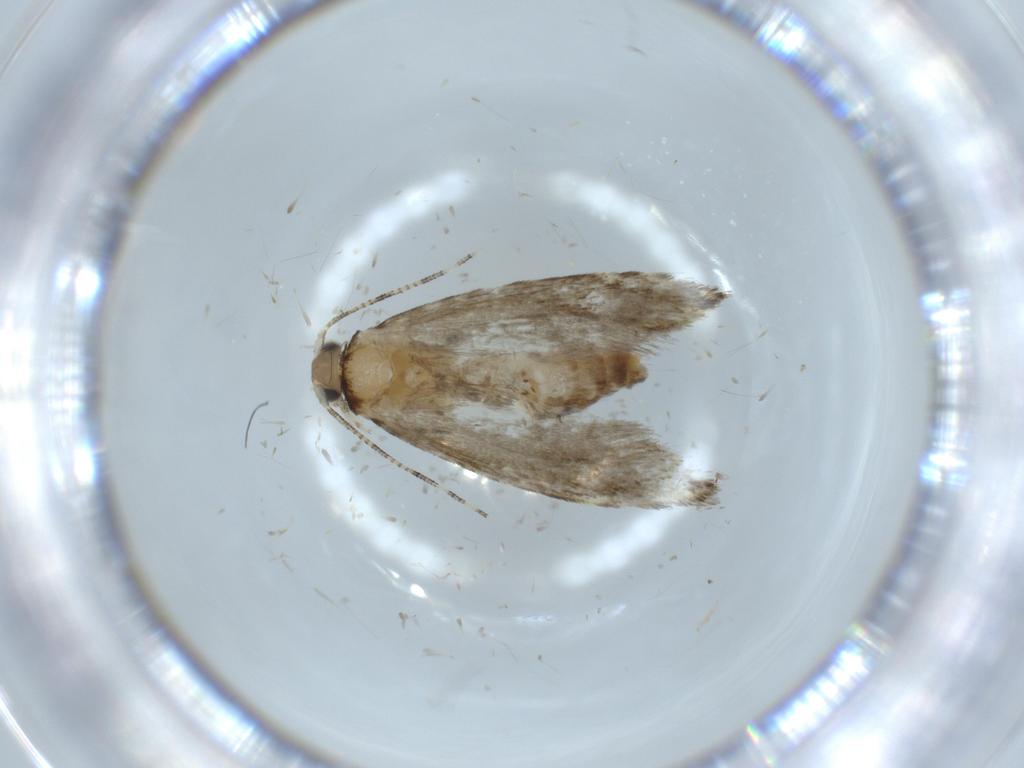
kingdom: Animalia
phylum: Arthropoda
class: Insecta
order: Lepidoptera
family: Tineidae
